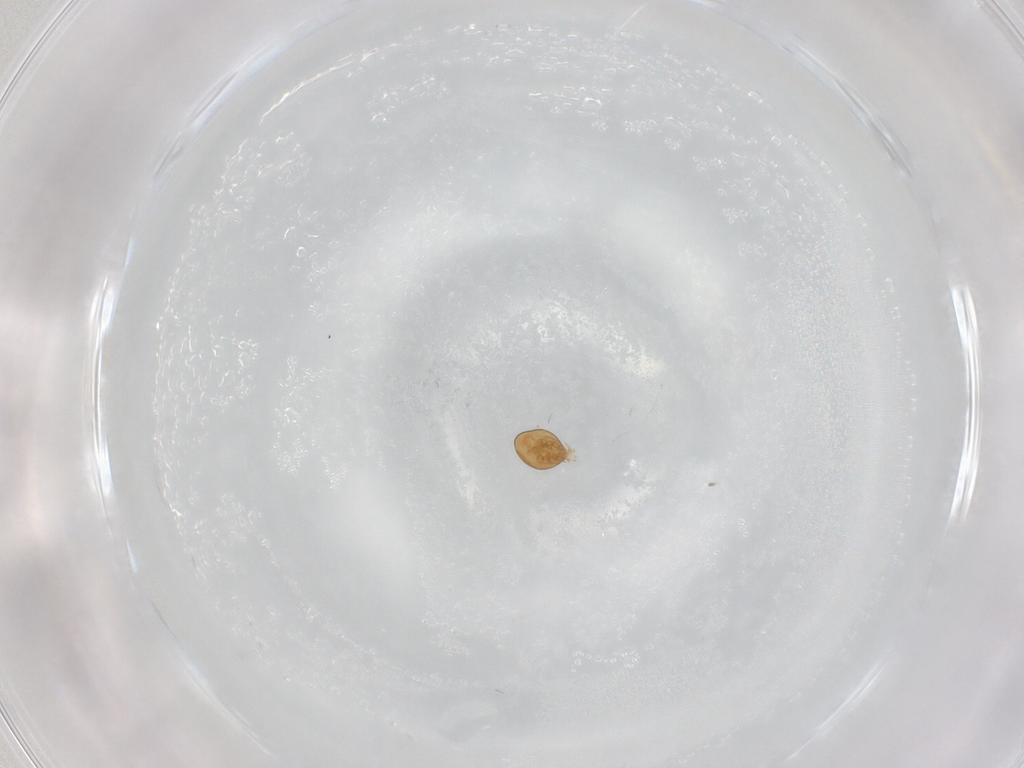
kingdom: Animalia
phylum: Arthropoda
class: Arachnida
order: Mesostigmata
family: Phytoseiidae
